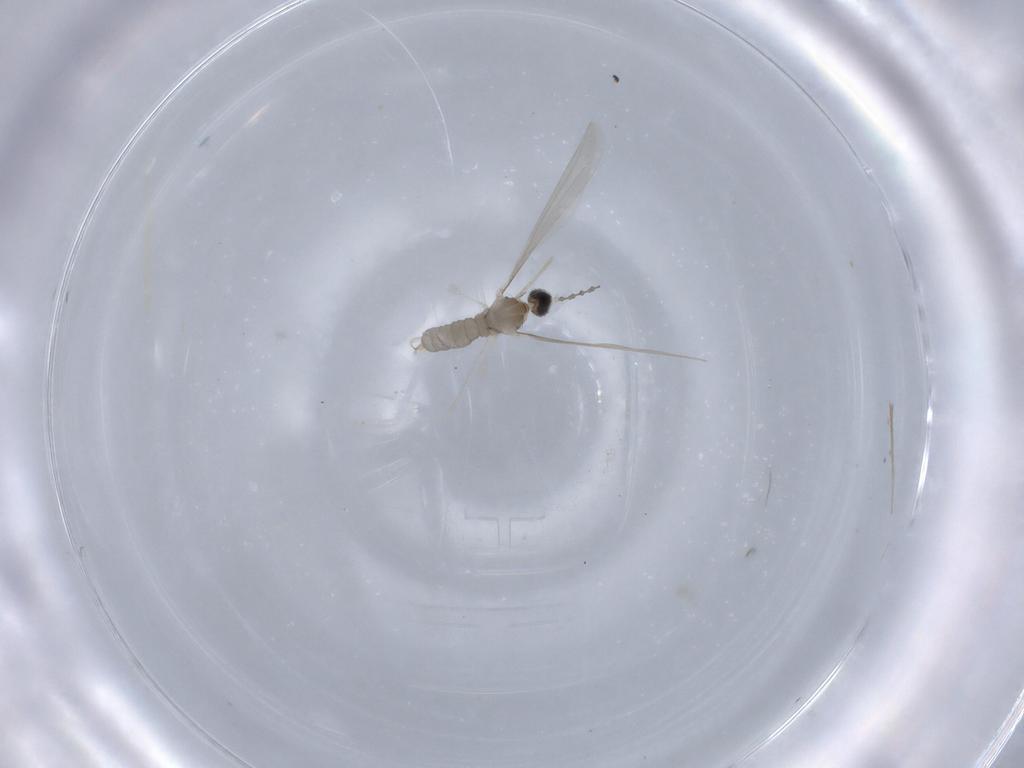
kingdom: Animalia
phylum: Arthropoda
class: Insecta
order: Diptera
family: Cecidomyiidae
